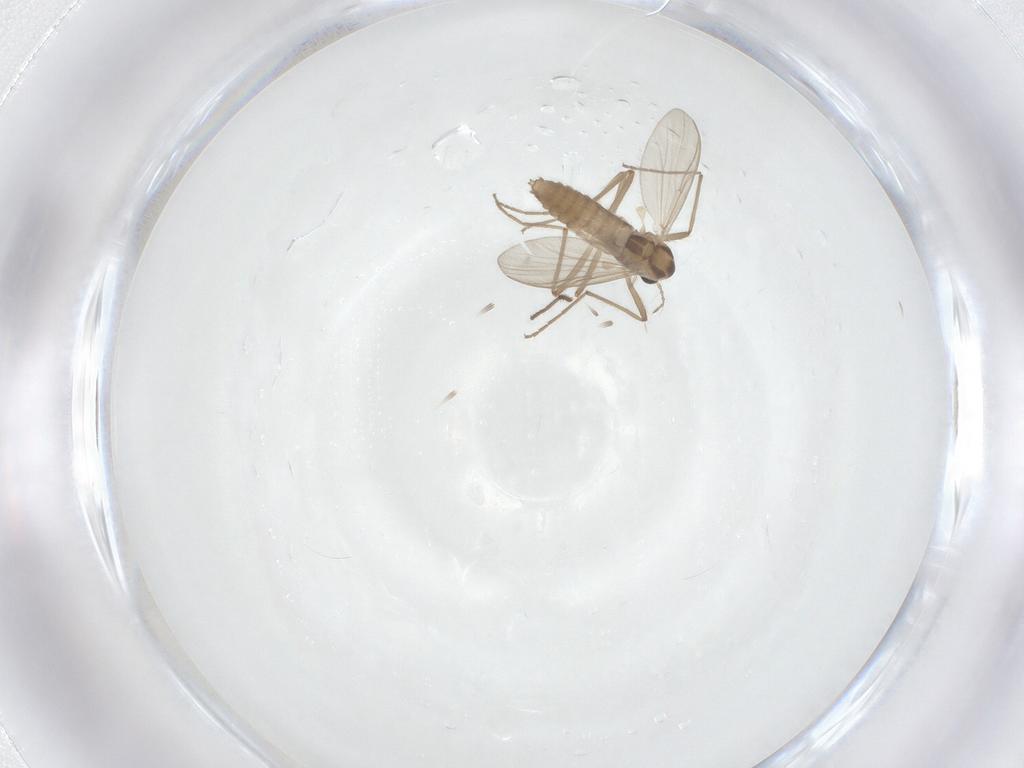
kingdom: Animalia
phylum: Arthropoda
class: Insecta
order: Diptera
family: Chironomidae
